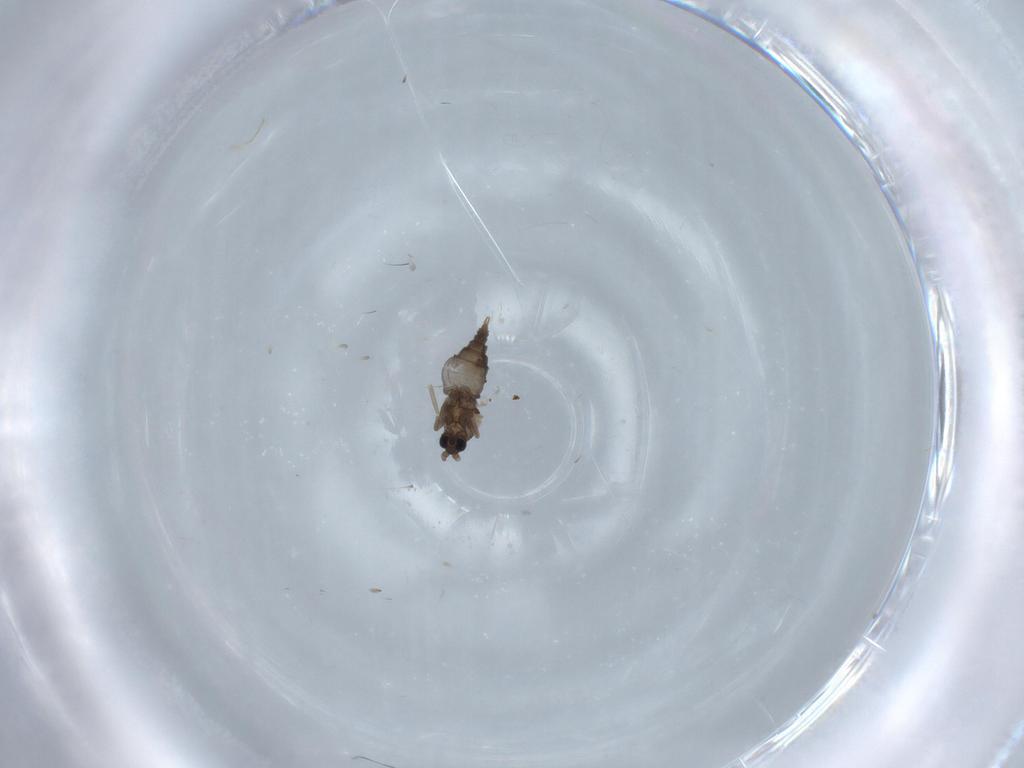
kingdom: Animalia
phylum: Arthropoda
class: Insecta
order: Diptera
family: Cecidomyiidae
